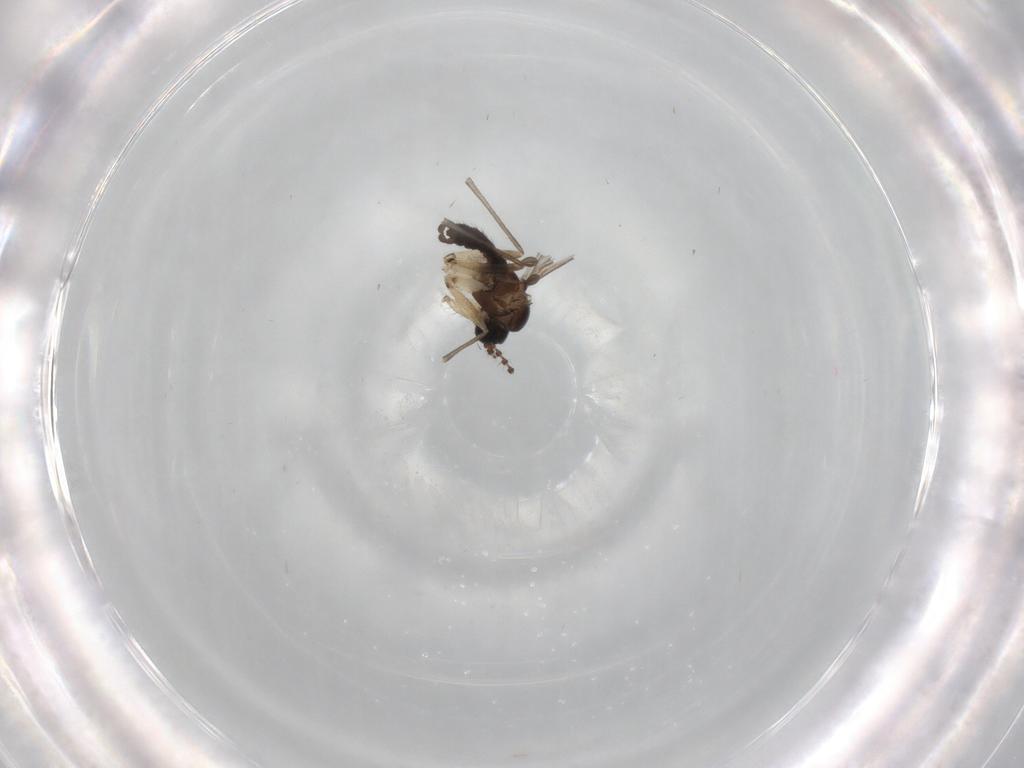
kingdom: Animalia
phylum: Arthropoda
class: Insecta
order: Diptera
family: Sciaridae
